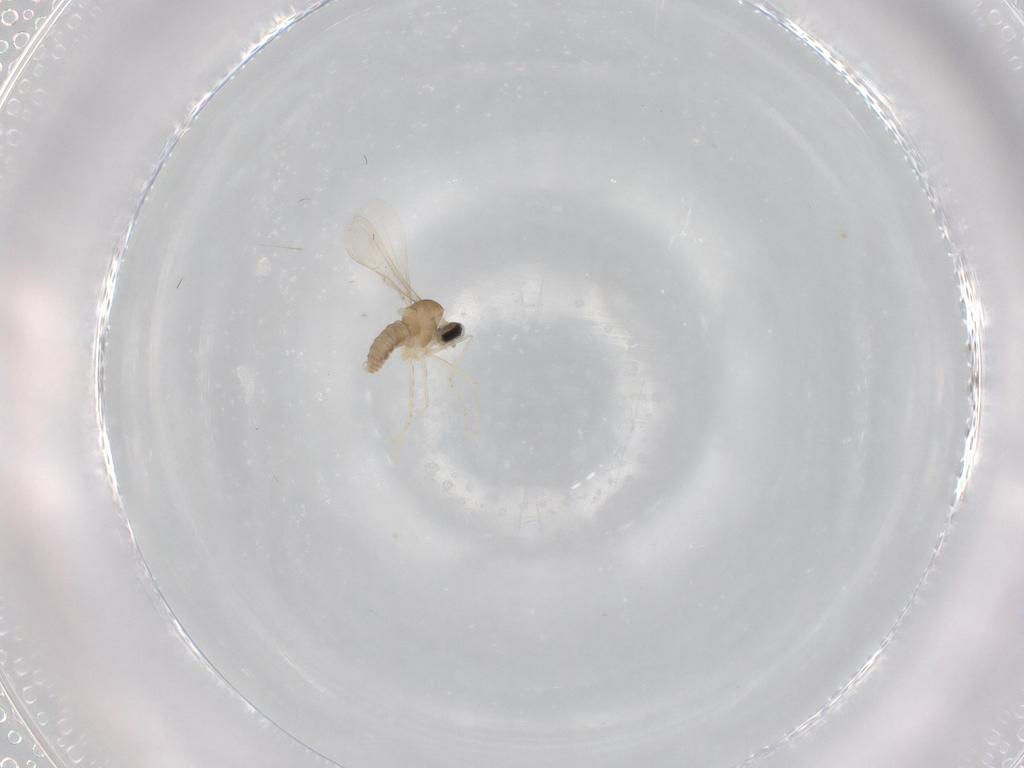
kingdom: Animalia
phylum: Arthropoda
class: Insecta
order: Diptera
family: Cecidomyiidae
